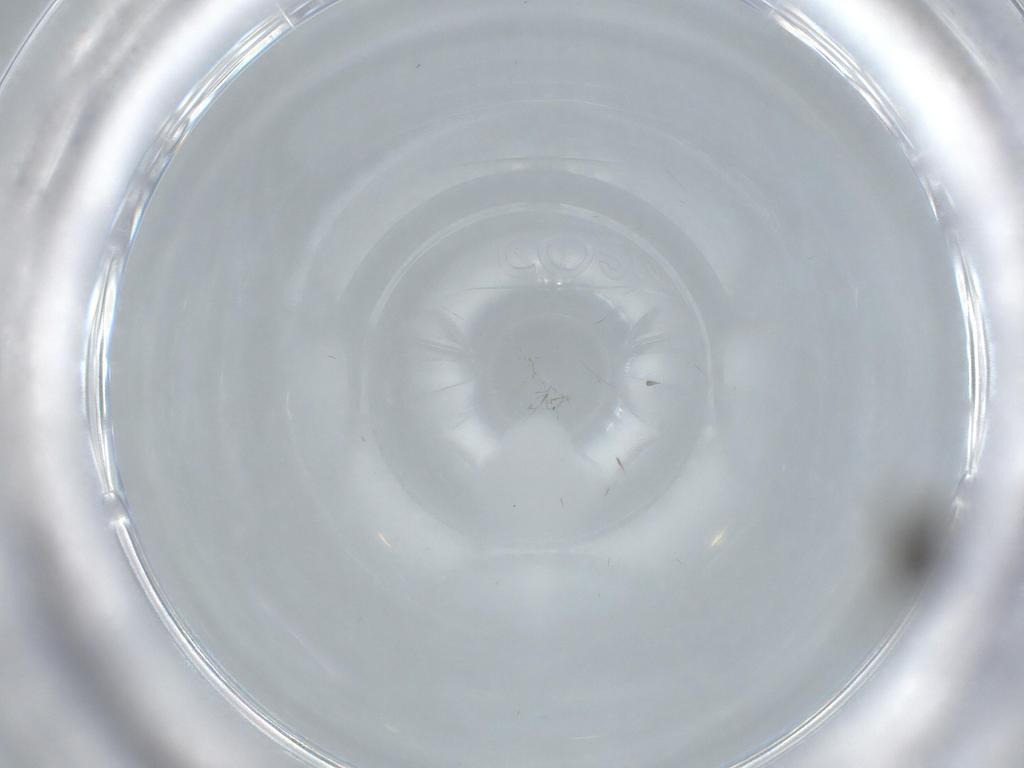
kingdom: Animalia
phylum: Arthropoda
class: Insecta
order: Diptera
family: Ceratopogonidae
